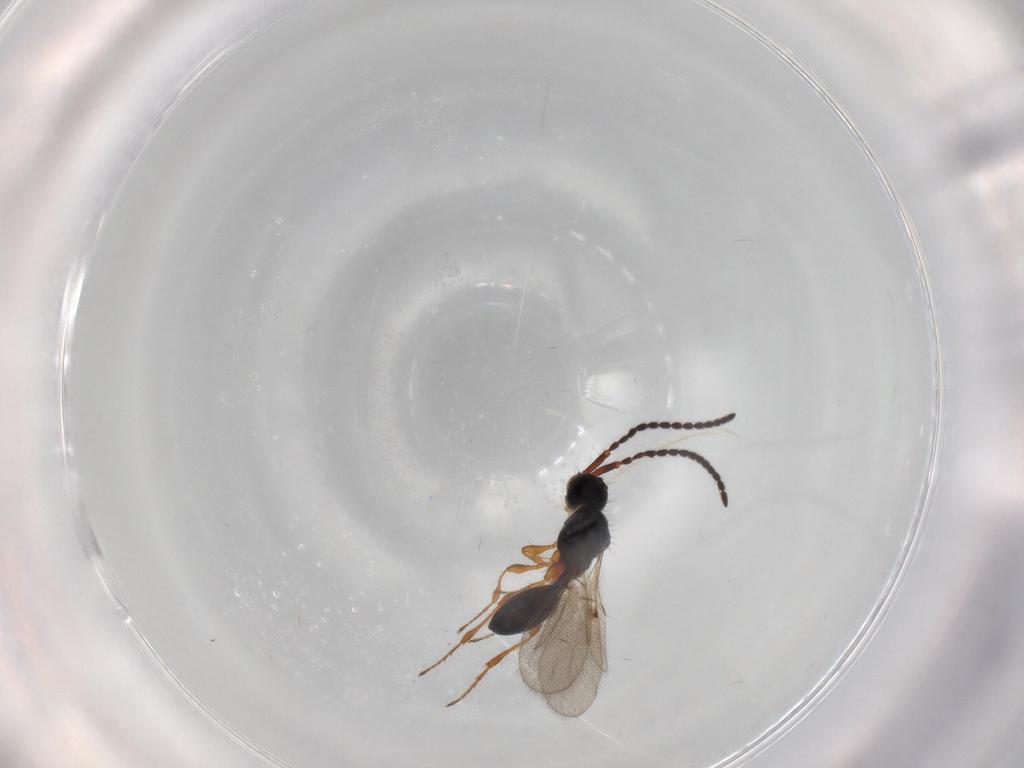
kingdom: Animalia
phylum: Arthropoda
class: Insecta
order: Hymenoptera
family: Diapriidae
